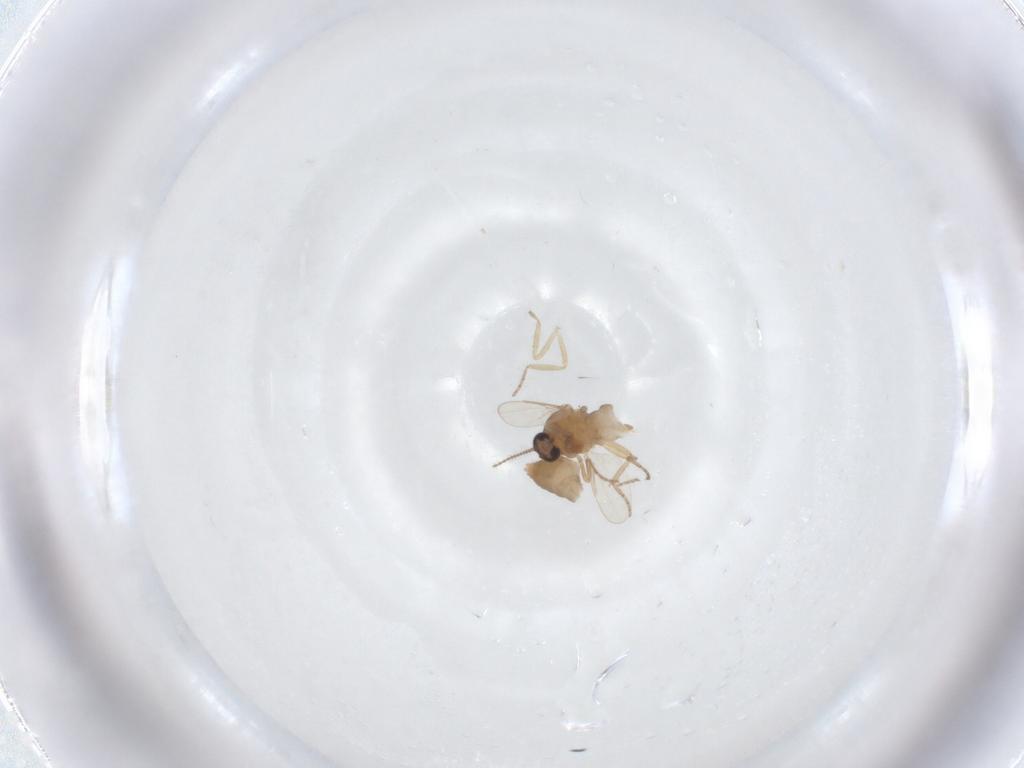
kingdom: Animalia
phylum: Arthropoda
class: Insecta
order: Diptera
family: Ceratopogonidae
